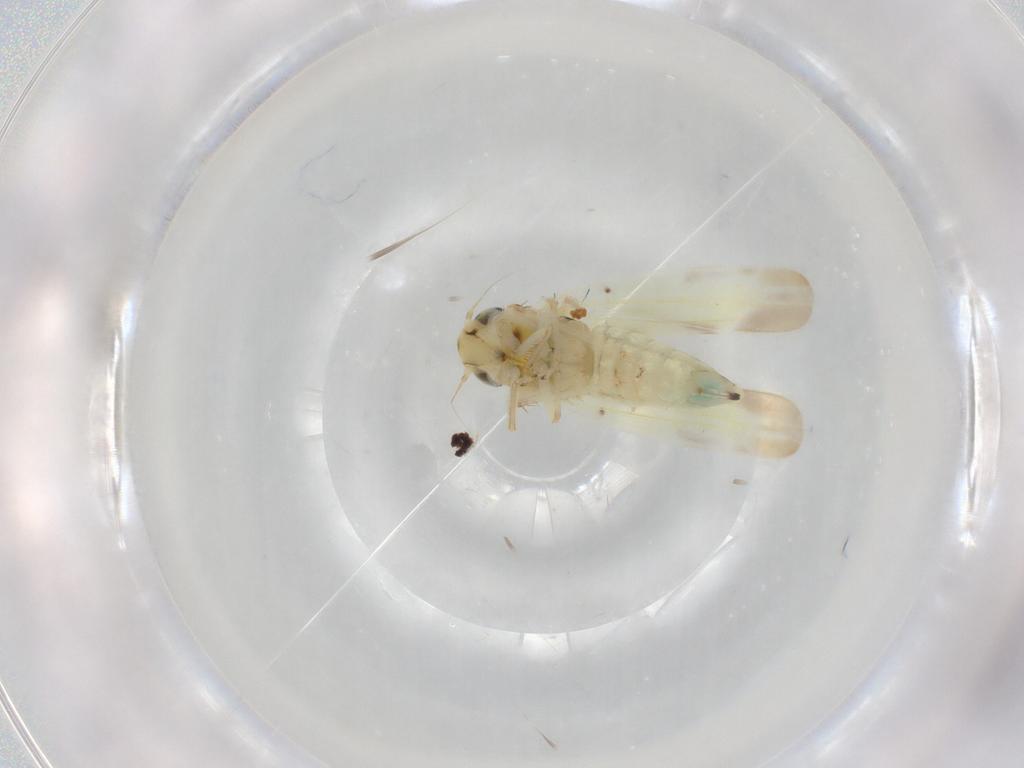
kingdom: Animalia
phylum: Arthropoda
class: Insecta
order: Hemiptera
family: Cicadellidae
